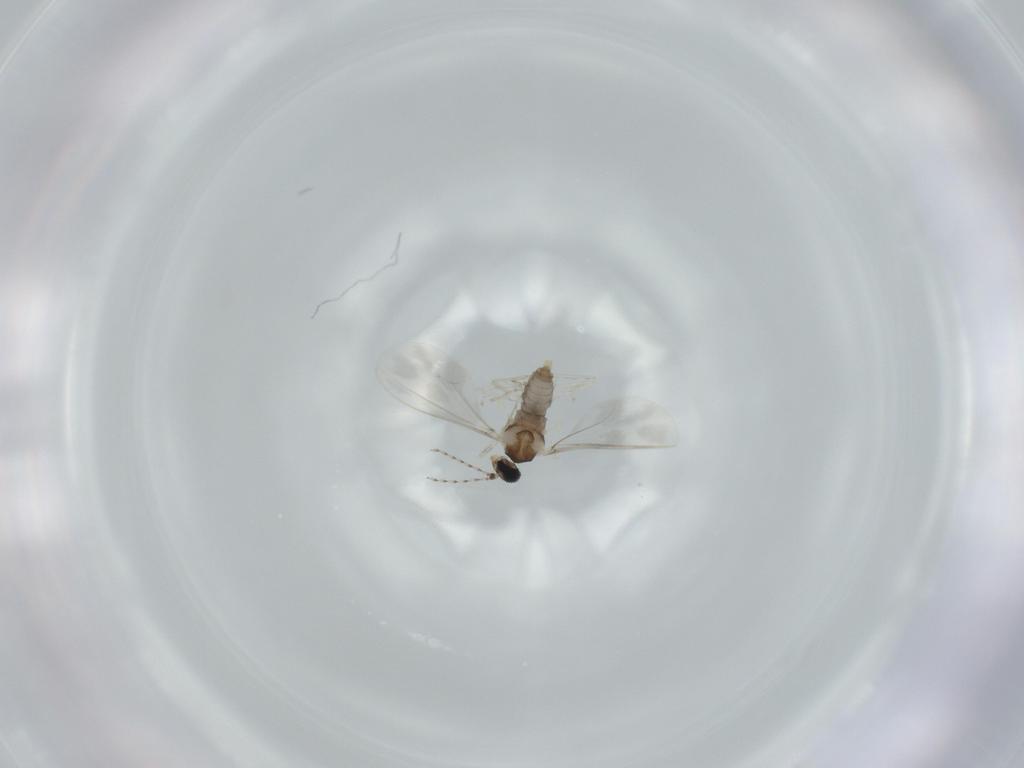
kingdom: Animalia
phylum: Arthropoda
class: Insecta
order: Diptera
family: Cecidomyiidae
